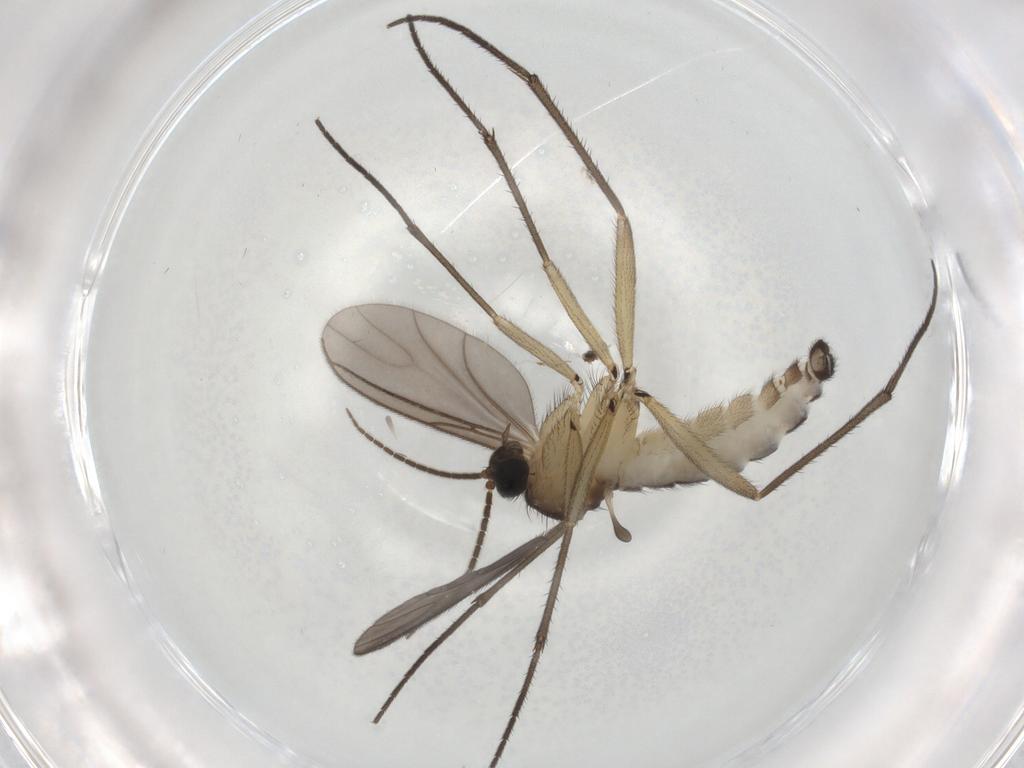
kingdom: Animalia
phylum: Arthropoda
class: Insecta
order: Diptera
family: Sciaridae
